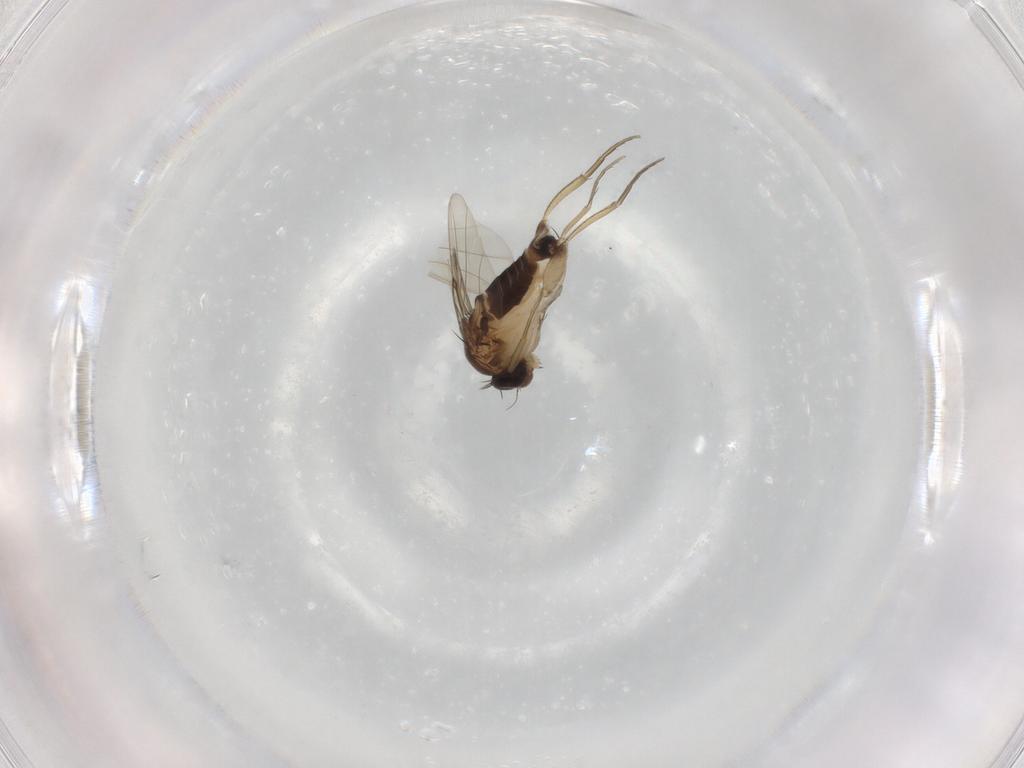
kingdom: Animalia
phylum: Arthropoda
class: Insecta
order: Diptera
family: Phoridae
